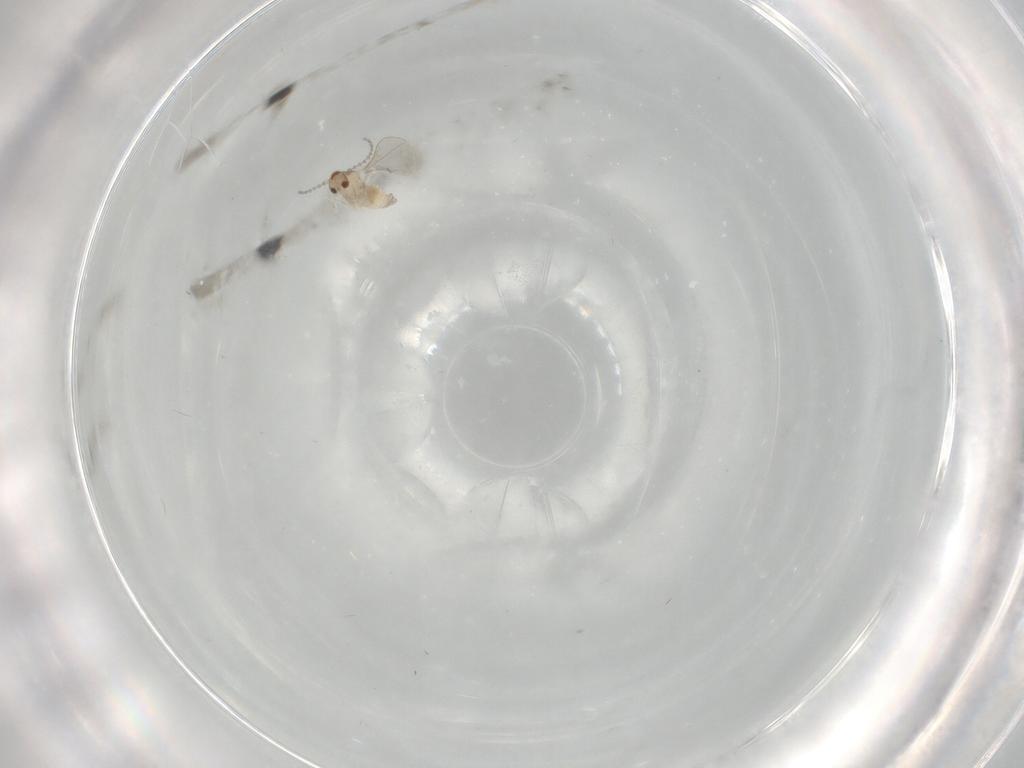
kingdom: Animalia
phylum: Arthropoda
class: Insecta
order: Diptera
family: Cecidomyiidae
